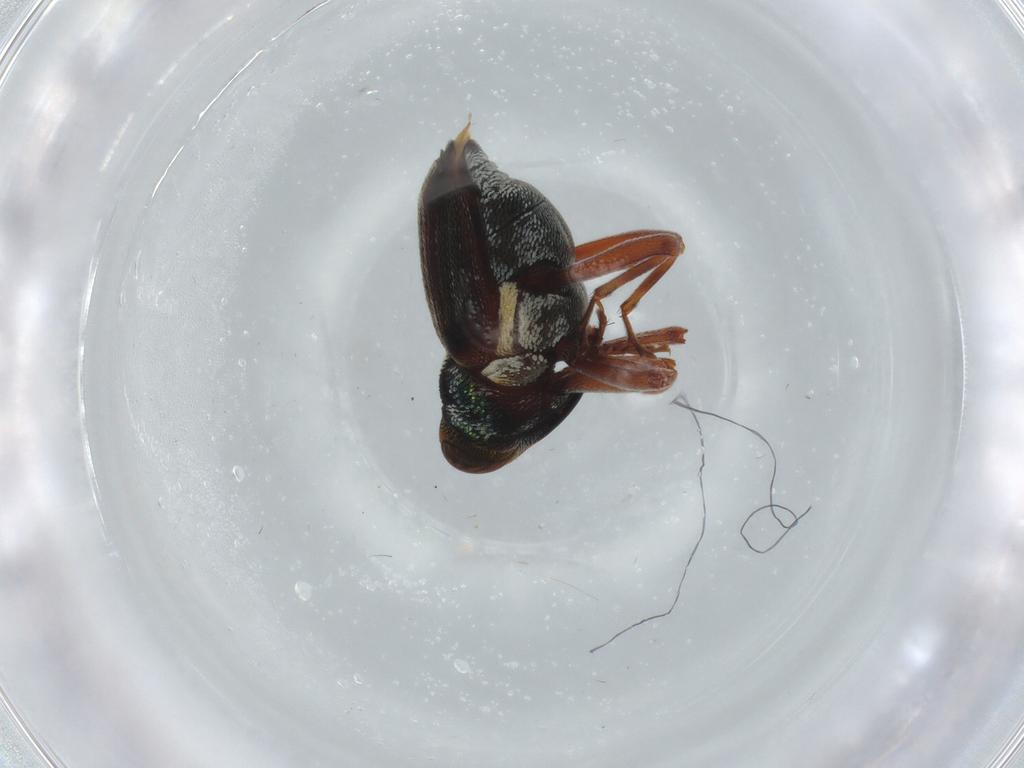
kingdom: Animalia
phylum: Arthropoda
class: Insecta
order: Coleoptera
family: Curculionidae
